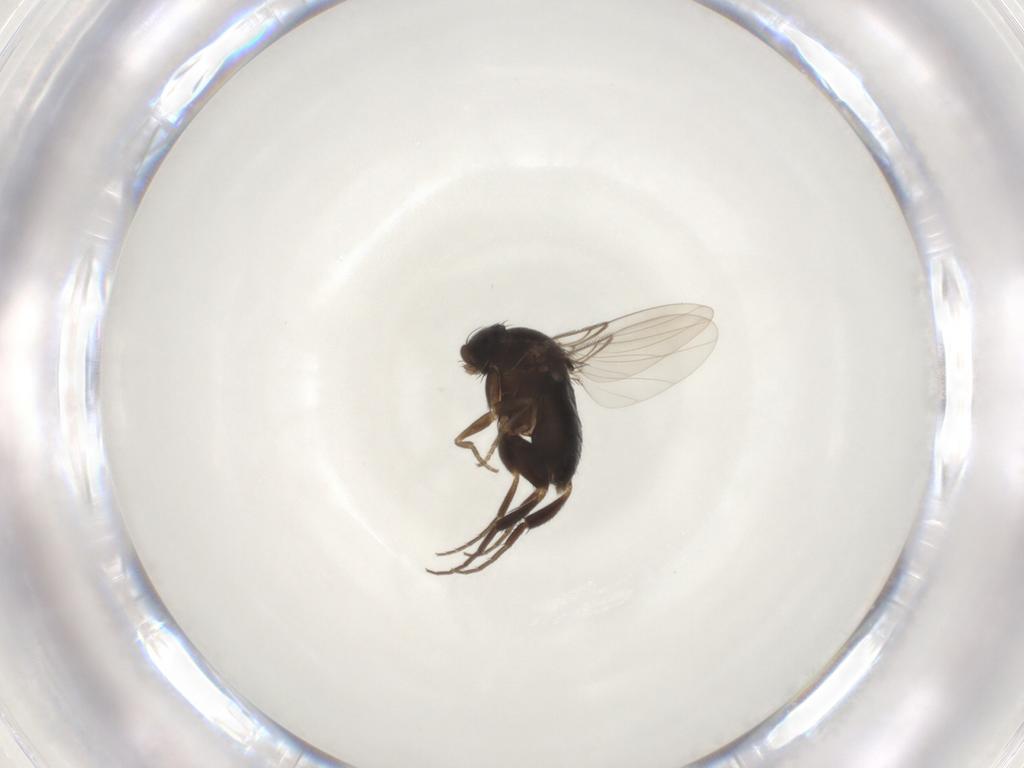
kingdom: Animalia
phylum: Arthropoda
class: Insecta
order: Diptera
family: Phoridae
